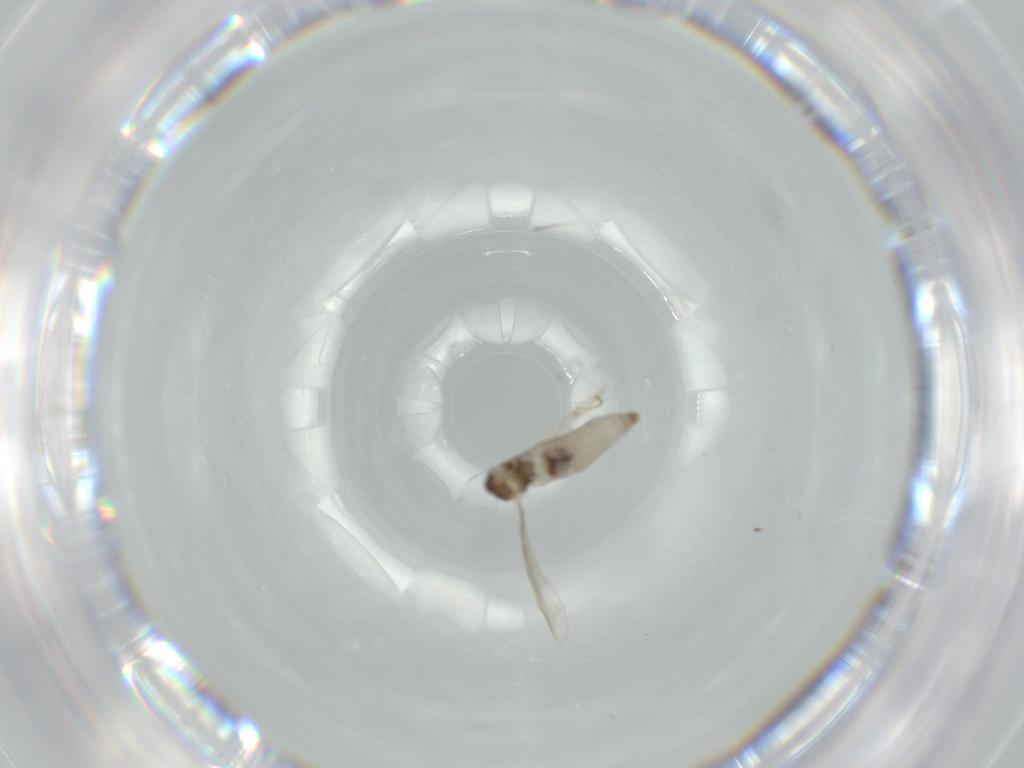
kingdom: Animalia
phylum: Arthropoda
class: Insecta
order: Diptera
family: Cecidomyiidae
